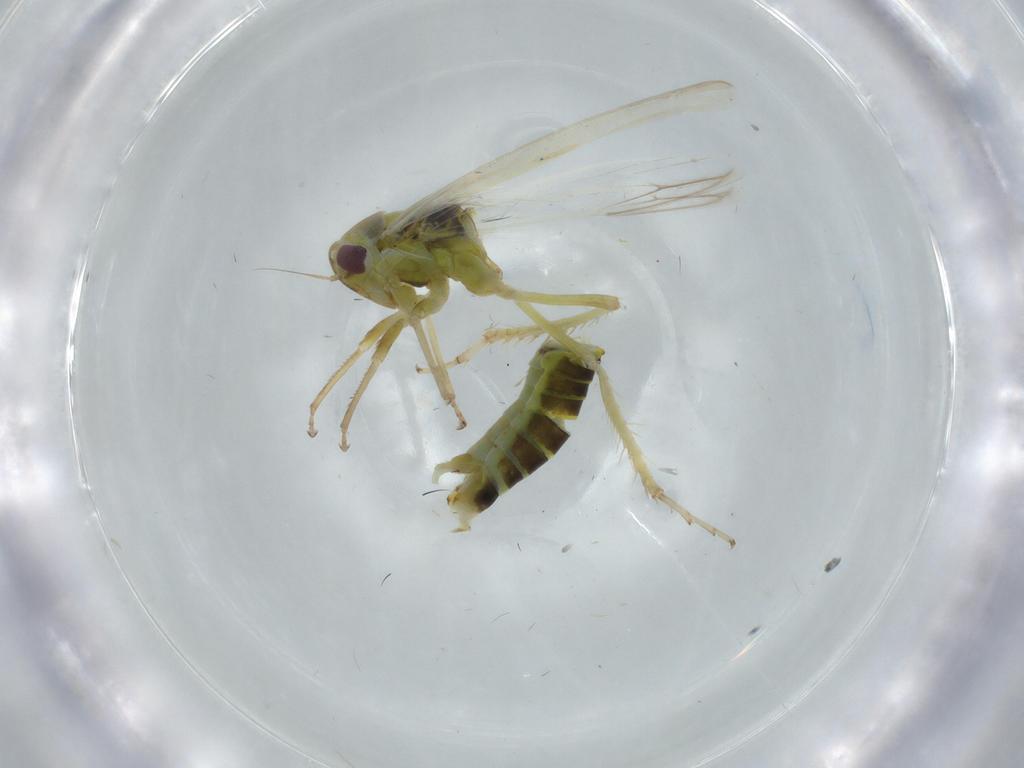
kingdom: Animalia
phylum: Arthropoda
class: Insecta
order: Hemiptera
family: Cicadellidae
